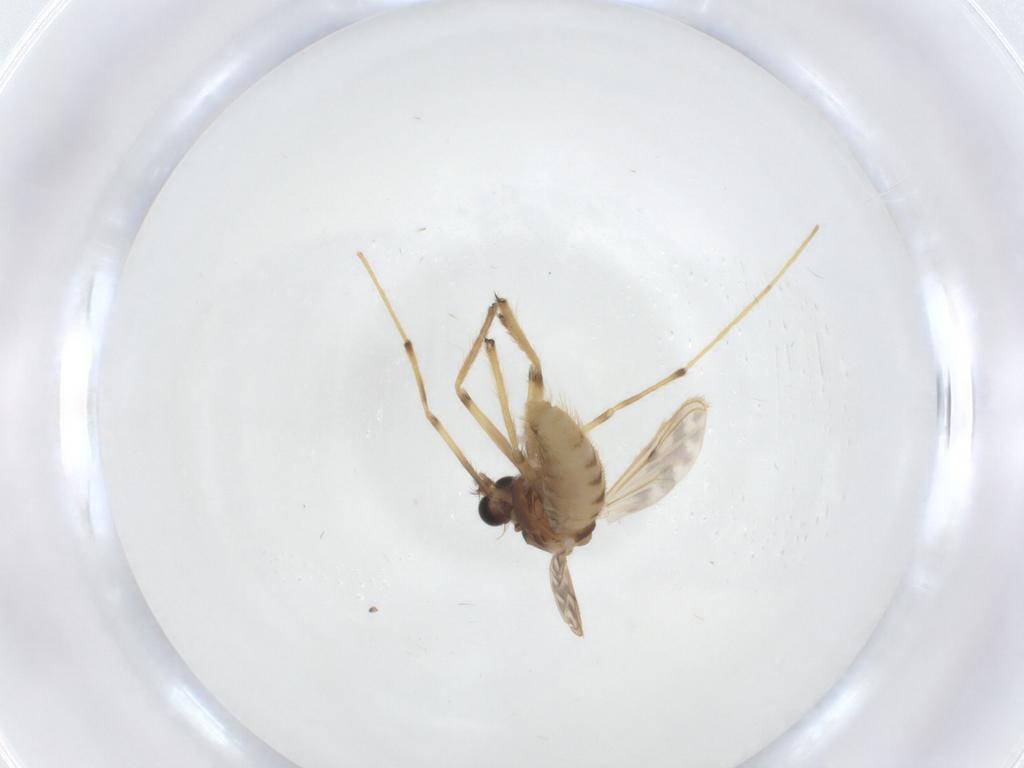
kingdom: Animalia
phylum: Arthropoda
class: Insecta
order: Diptera
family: Chironomidae
